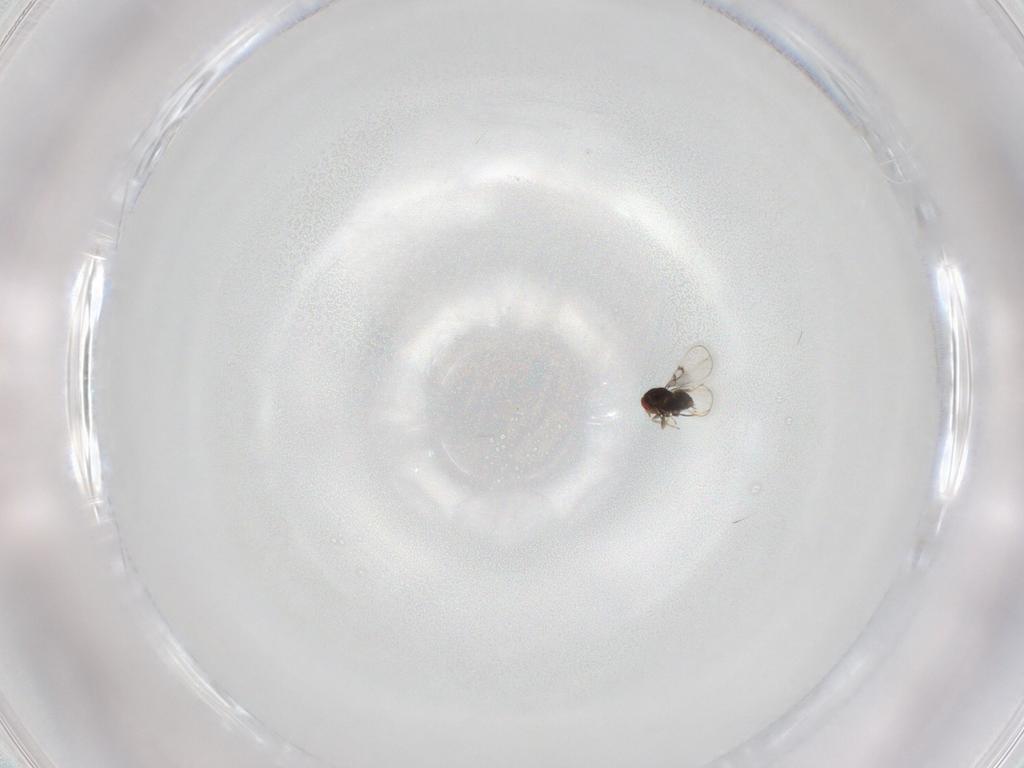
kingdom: Animalia
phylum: Arthropoda
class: Insecta
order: Hymenoptera
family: Trichogrammatidae
